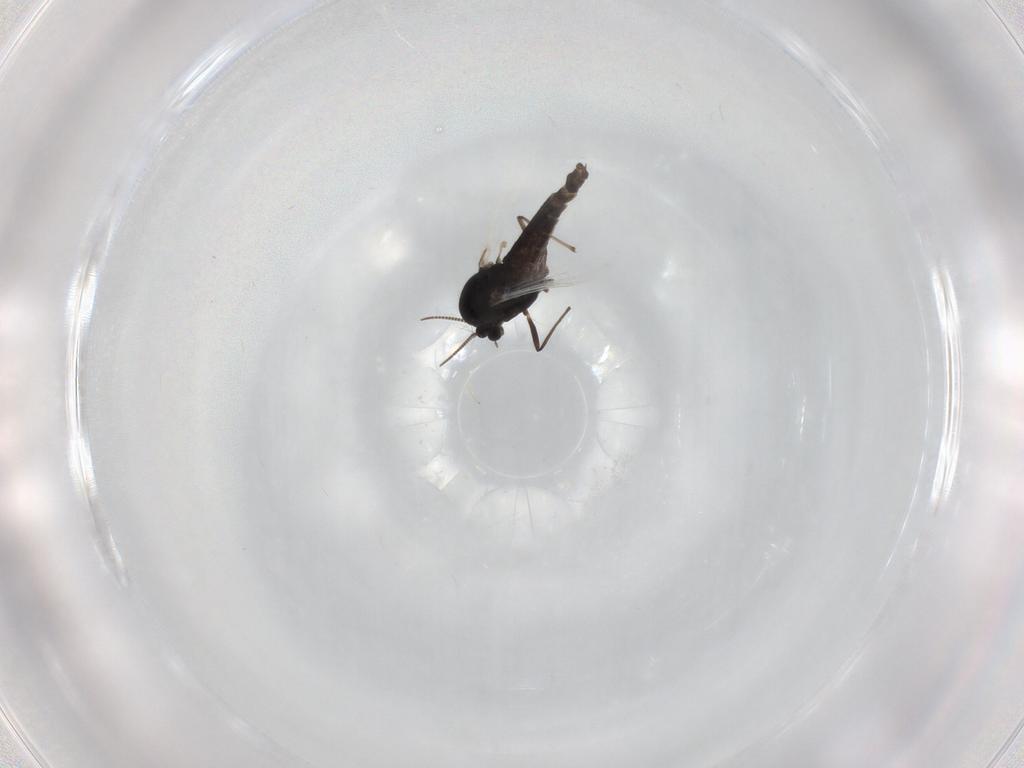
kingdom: Animalia
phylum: Arthropoda
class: Insecta
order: Diptera
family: Chironomidae
